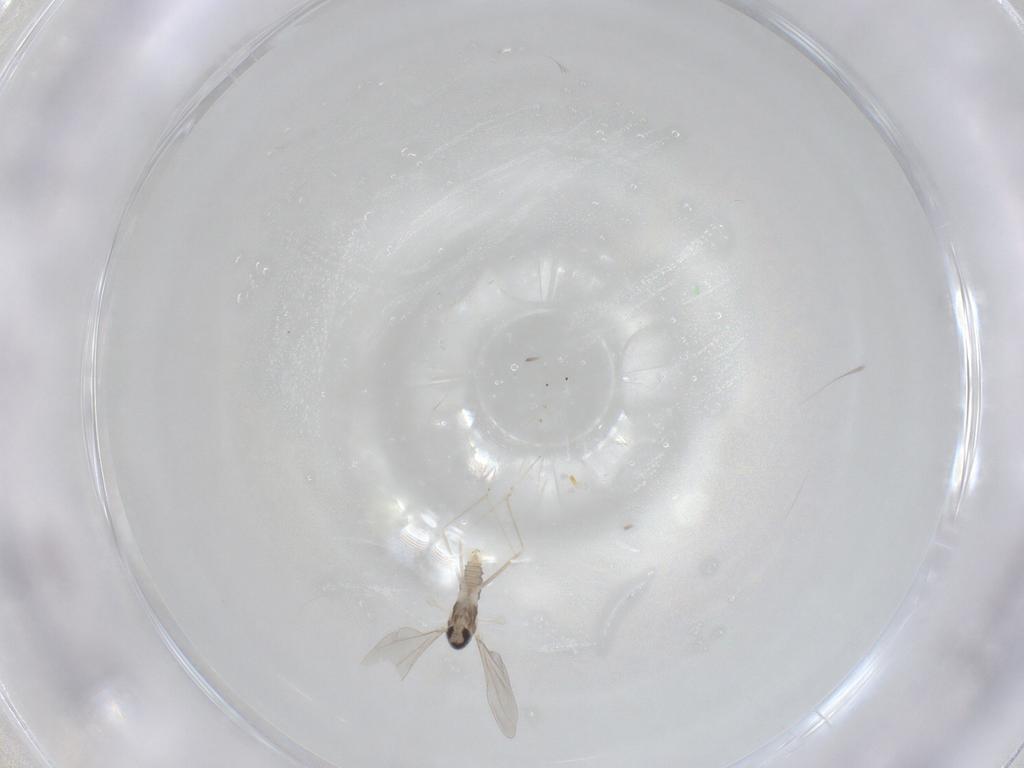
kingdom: Animalia
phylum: Arthropoda
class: Insecta
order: Diptera
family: Cecidomyiidae
